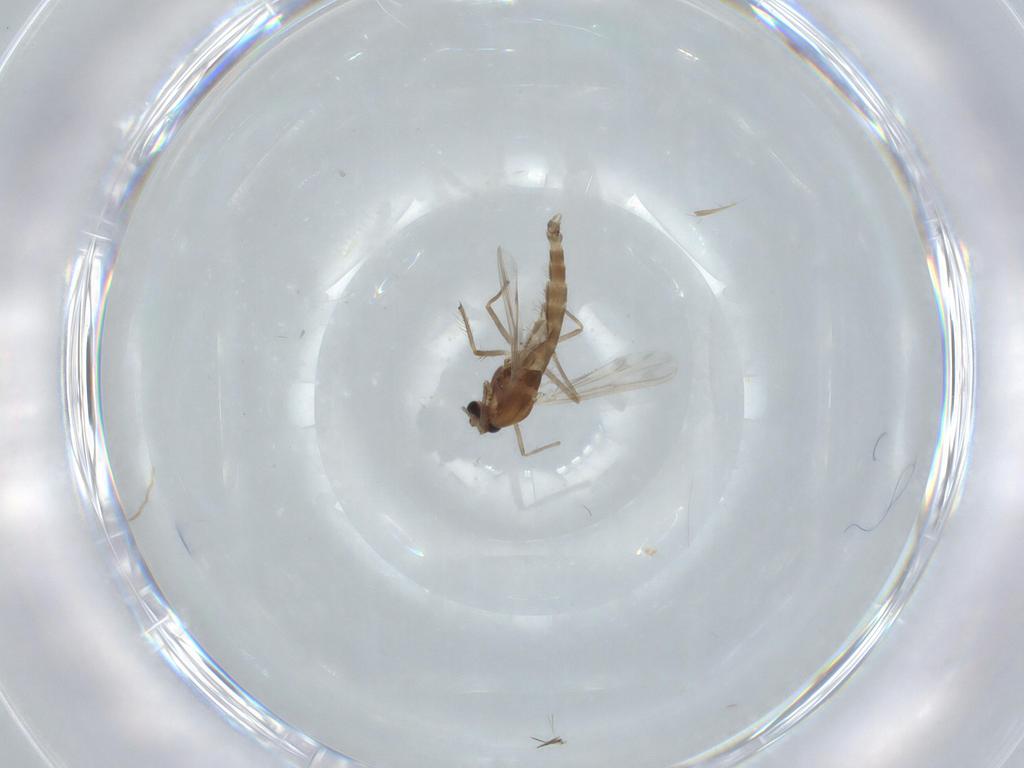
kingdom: Animalia
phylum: Arthropoda
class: Insecta
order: Diptera
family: Chironomidae
